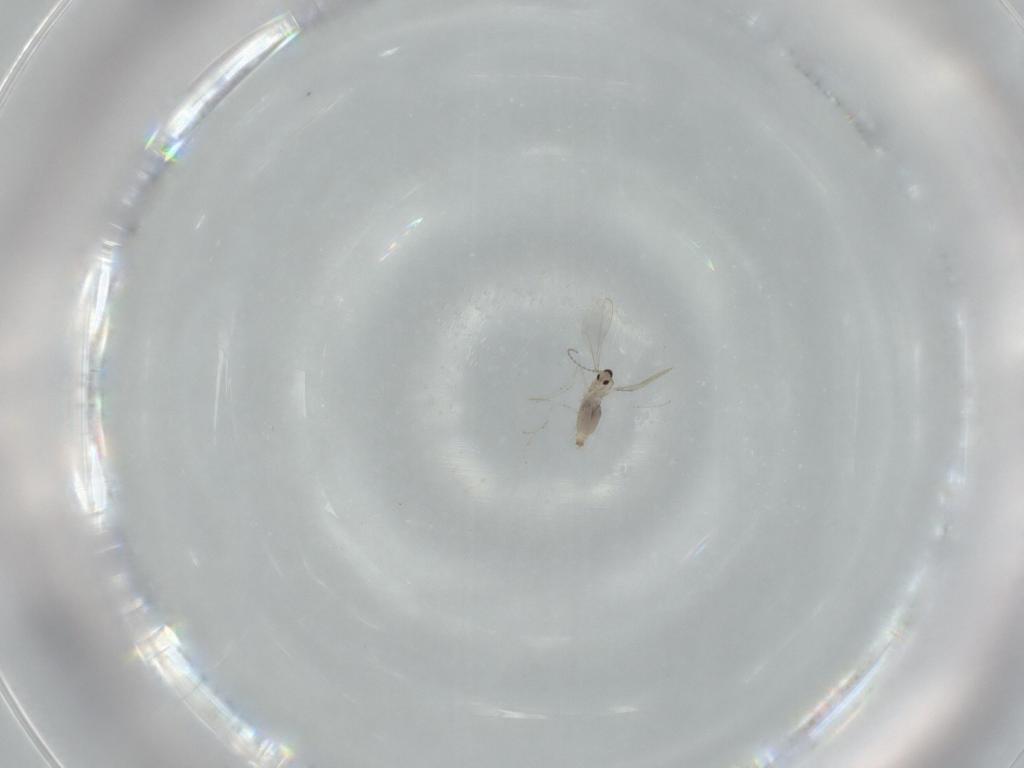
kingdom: Animalia
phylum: Arthropoda
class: Insecta
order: Diptera
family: Cecidomyiidae
